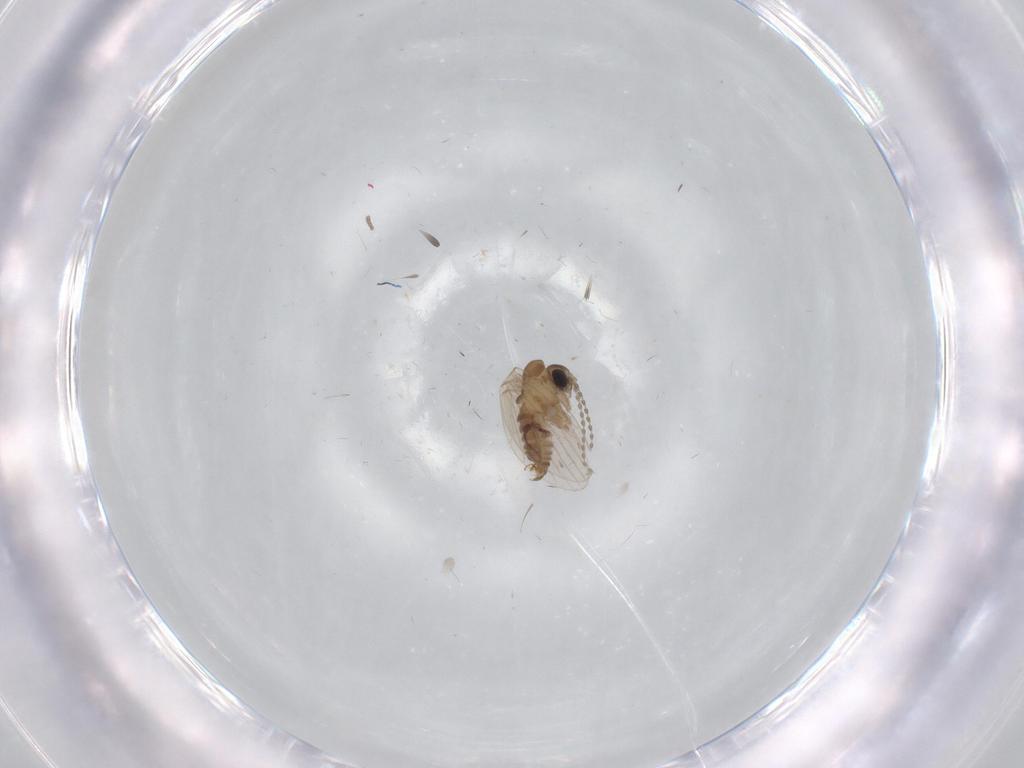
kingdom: Animalia
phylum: Arthropoda
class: Insecta
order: Diptera
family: Cecidomyiidae
